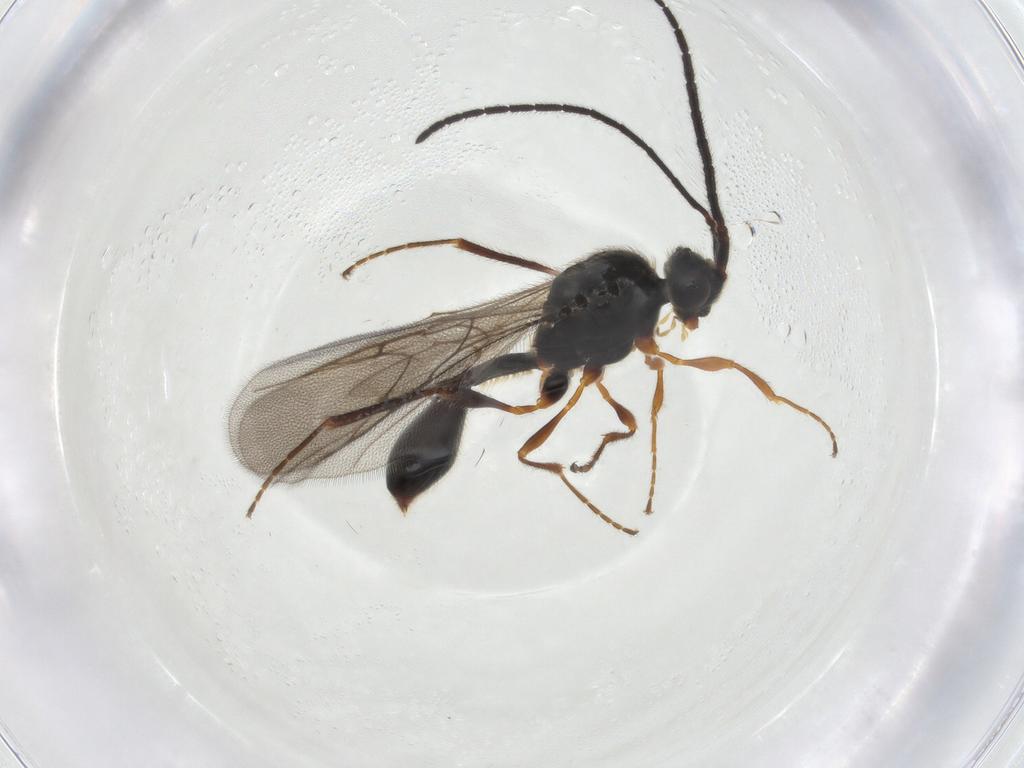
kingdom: Animalia
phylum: Arthropoda
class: Insecta
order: Hymenoptera
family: Diapriidae
